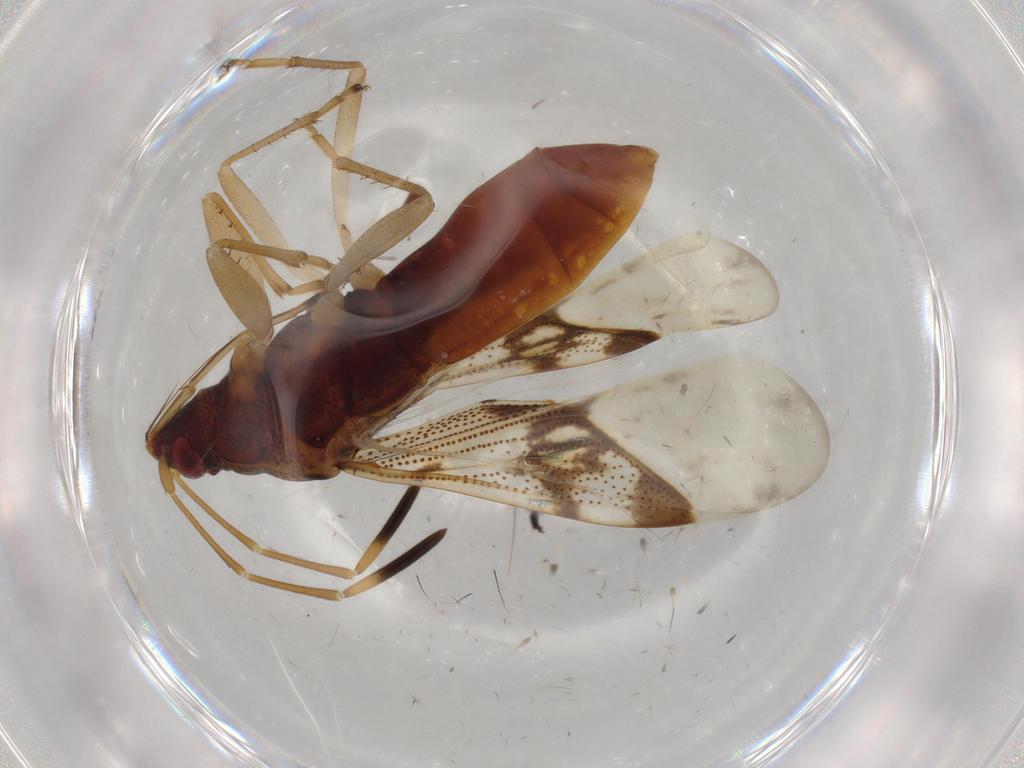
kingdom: Animalia
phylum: Arthropoda
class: Insecta
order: Hemiptera
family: Rhyparochromidae
